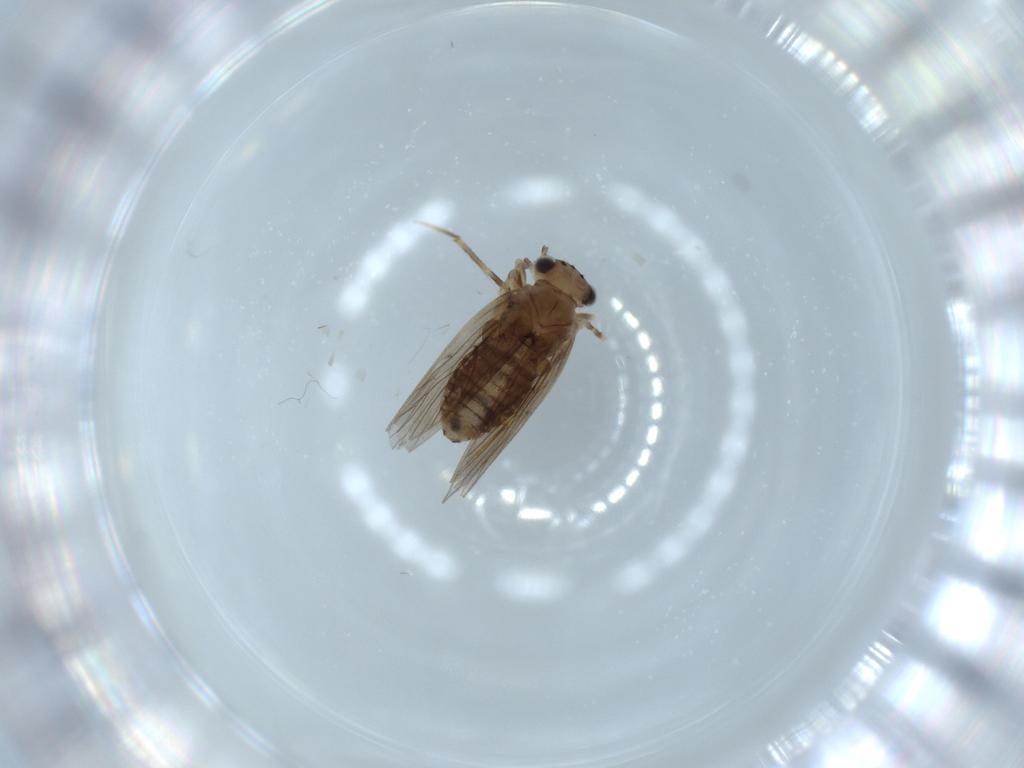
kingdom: Animalia
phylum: Arthropoda
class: Insecta
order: Psocodea
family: Lepidopsocidae
